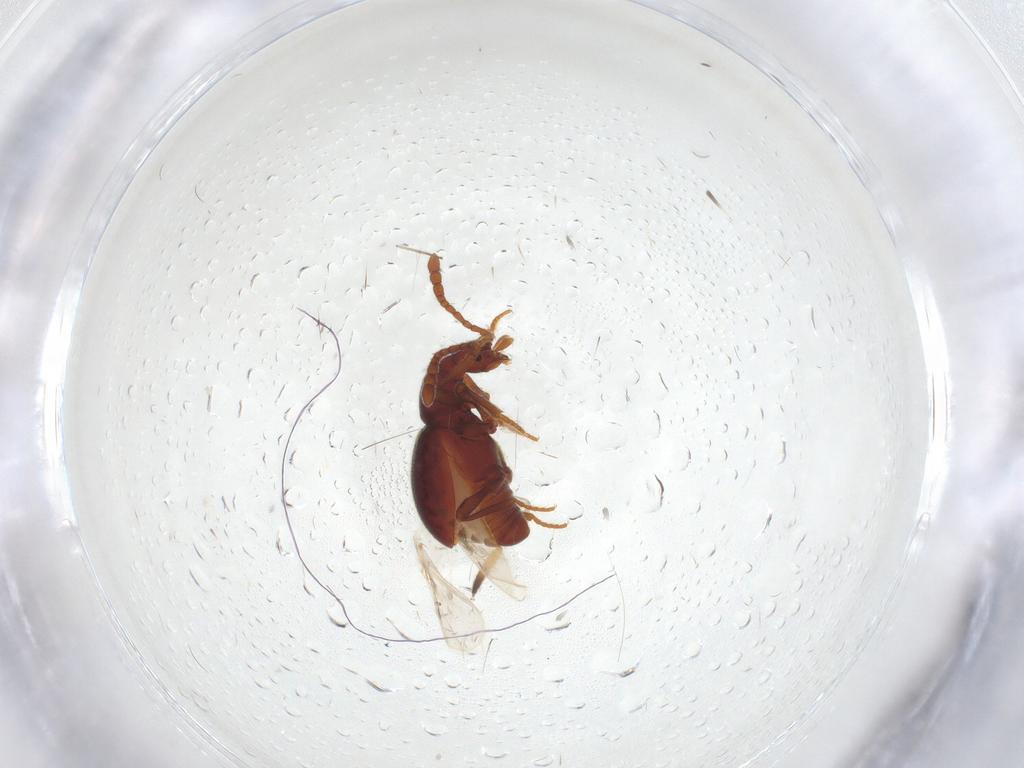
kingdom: Animalia
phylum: Arthropoda
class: Insecta
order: Coleoptera
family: Staphylinidae
